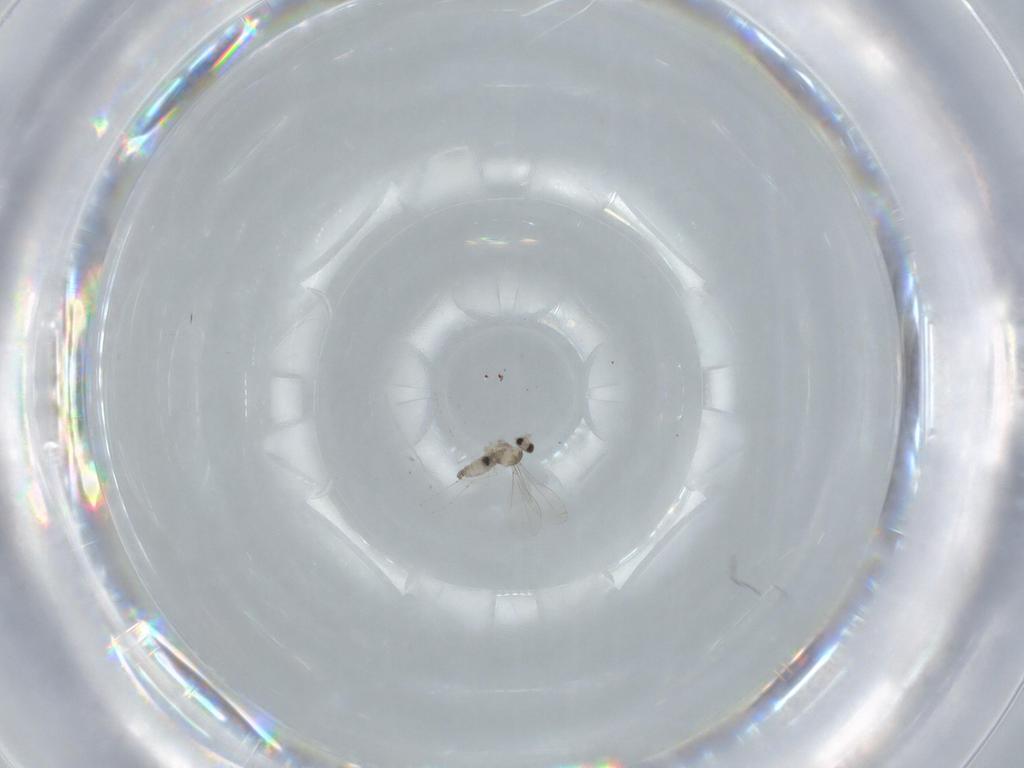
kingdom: Animalia
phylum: Arthropoda
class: Insecta
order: Diptera
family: Cecidomyiidae
